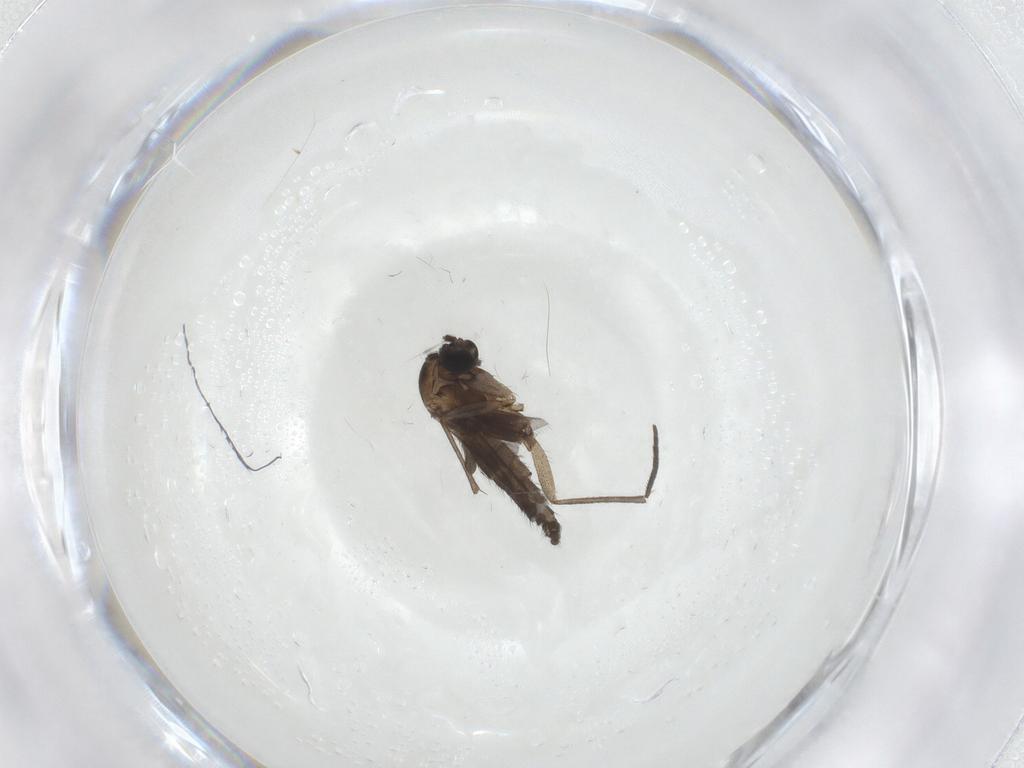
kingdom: Animalia
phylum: Arthropoda
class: Insecta
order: Diptera
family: Sciaridae
